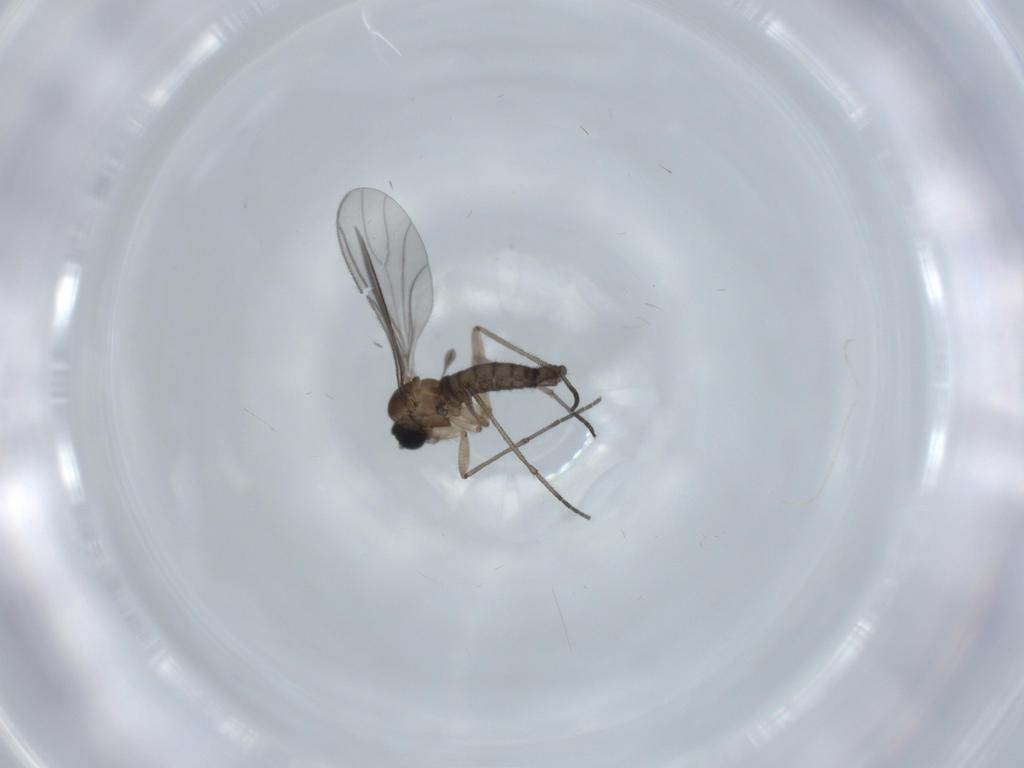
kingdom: Animalia
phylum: Arthropoda
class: Insecta
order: Diptera
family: Sciaridae
